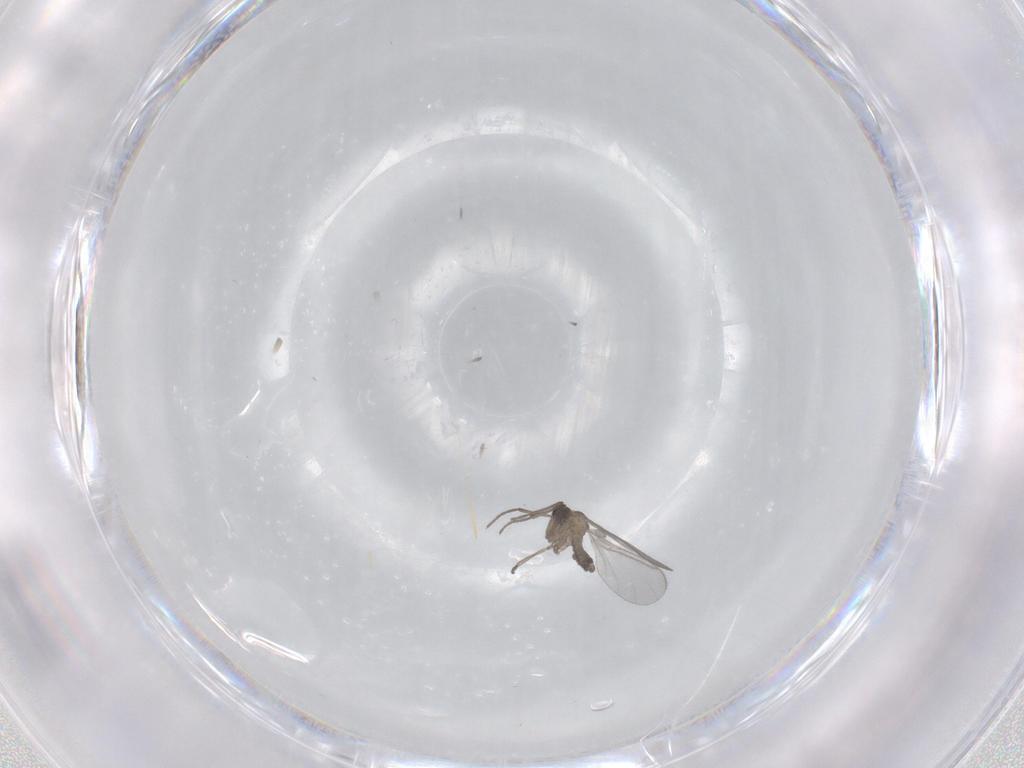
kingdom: Animalia
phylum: Arthropoda
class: Insecta
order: Diptera
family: Sciaridae
